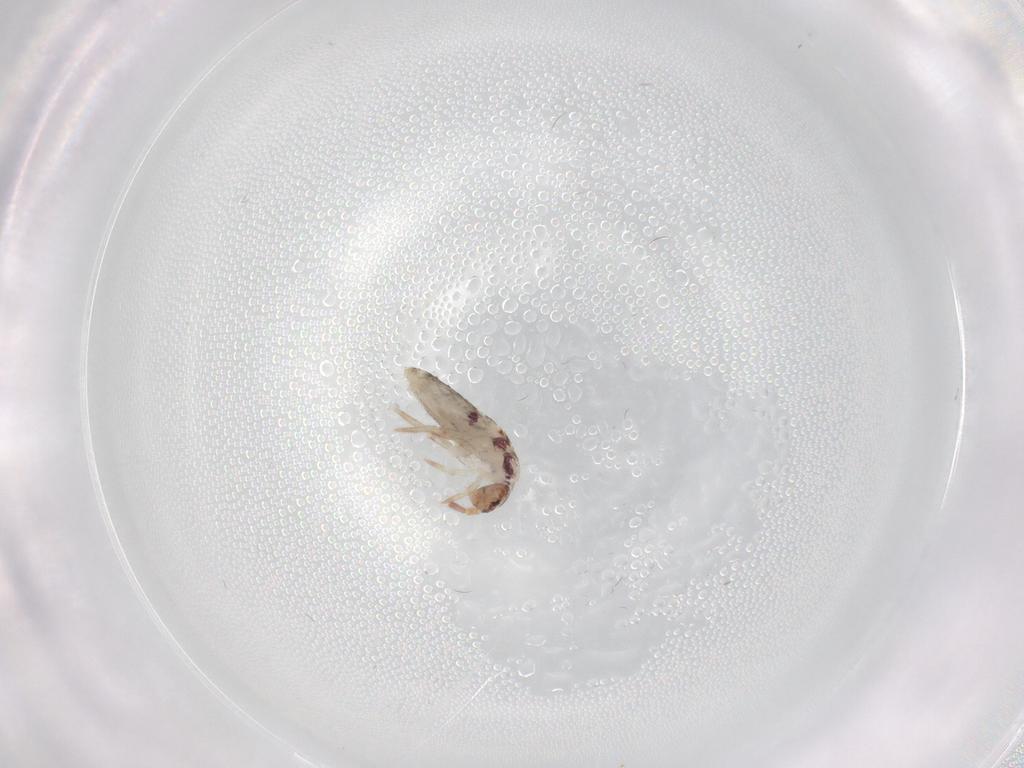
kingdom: Animalia
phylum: Arthropoda
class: Collembola
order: Entomobryomorpha
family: Entomobryidae
